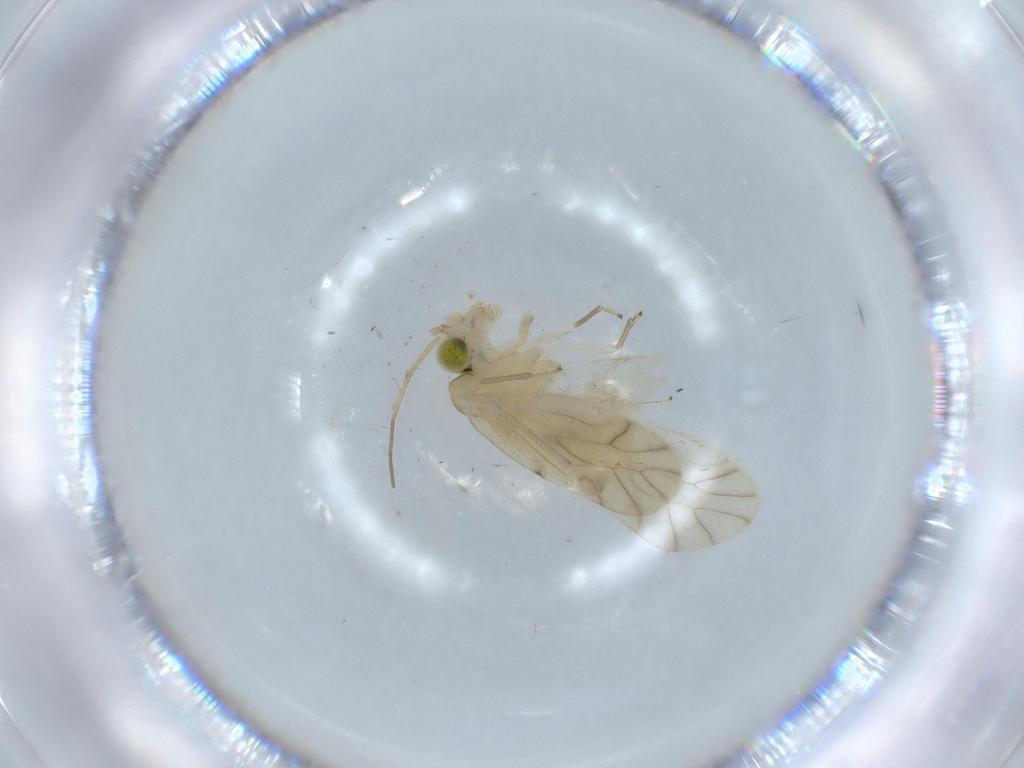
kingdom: Animalia
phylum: Arthropoda
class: Insecta
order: Psocodea
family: Caeciliusidae
